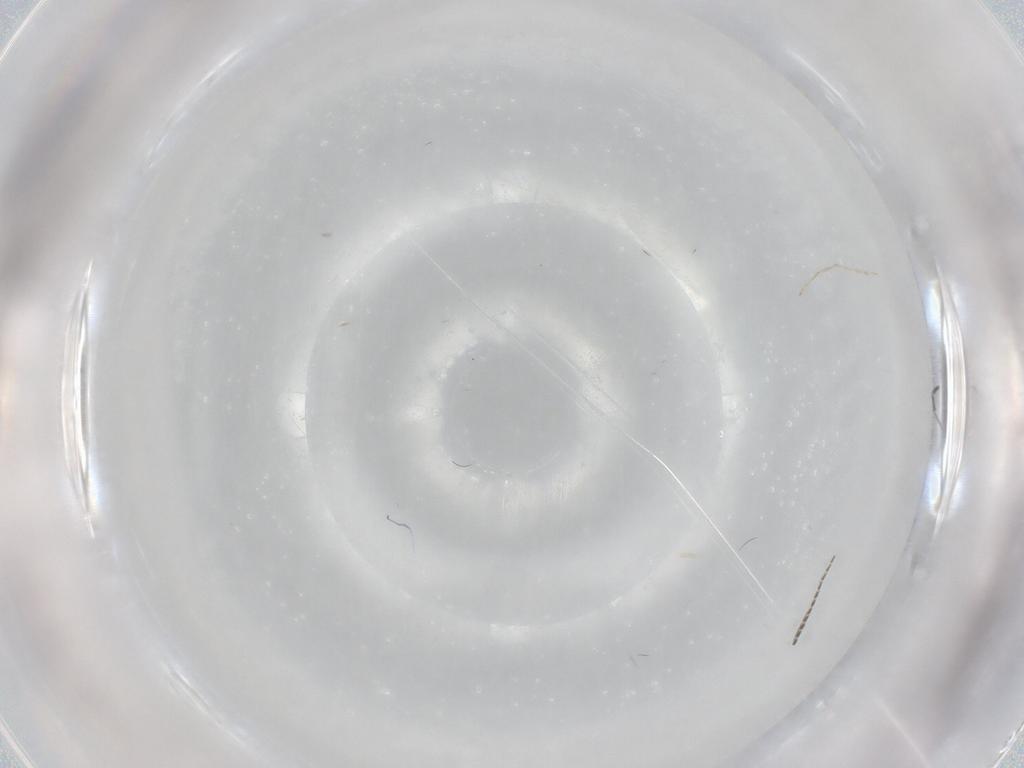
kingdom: Animalia
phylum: Arthropoda
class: Insecta
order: Diptera
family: Chironomidae
